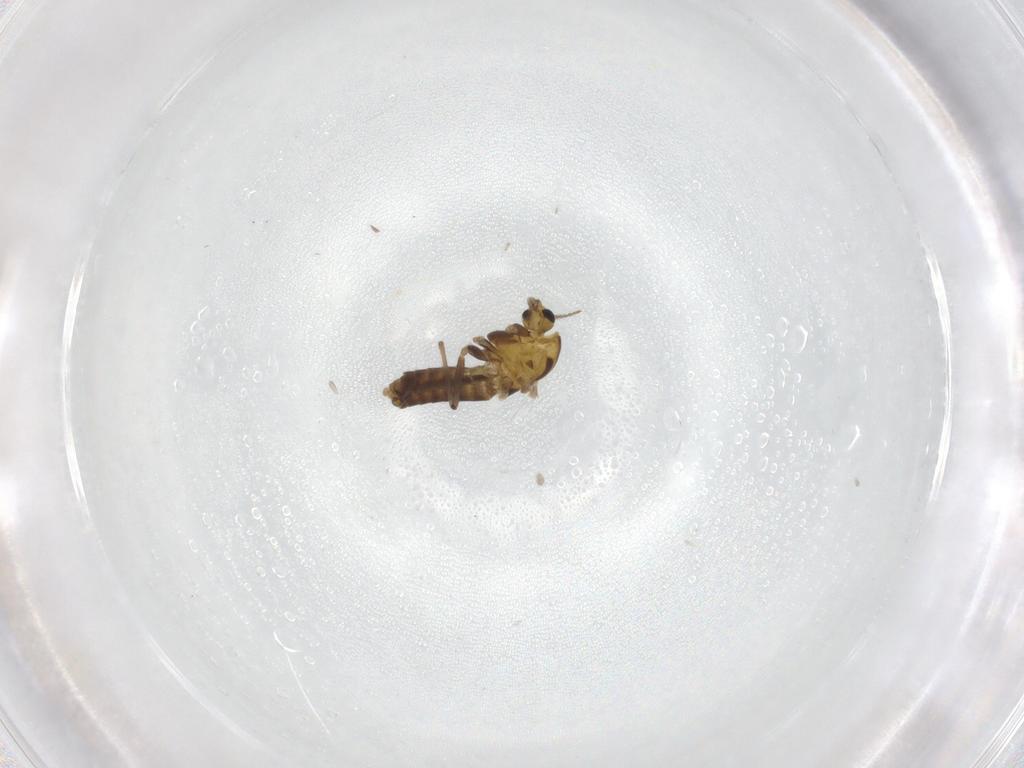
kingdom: Animalia
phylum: Arthropoda
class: Insecta
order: Diptera
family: Chironomidae
